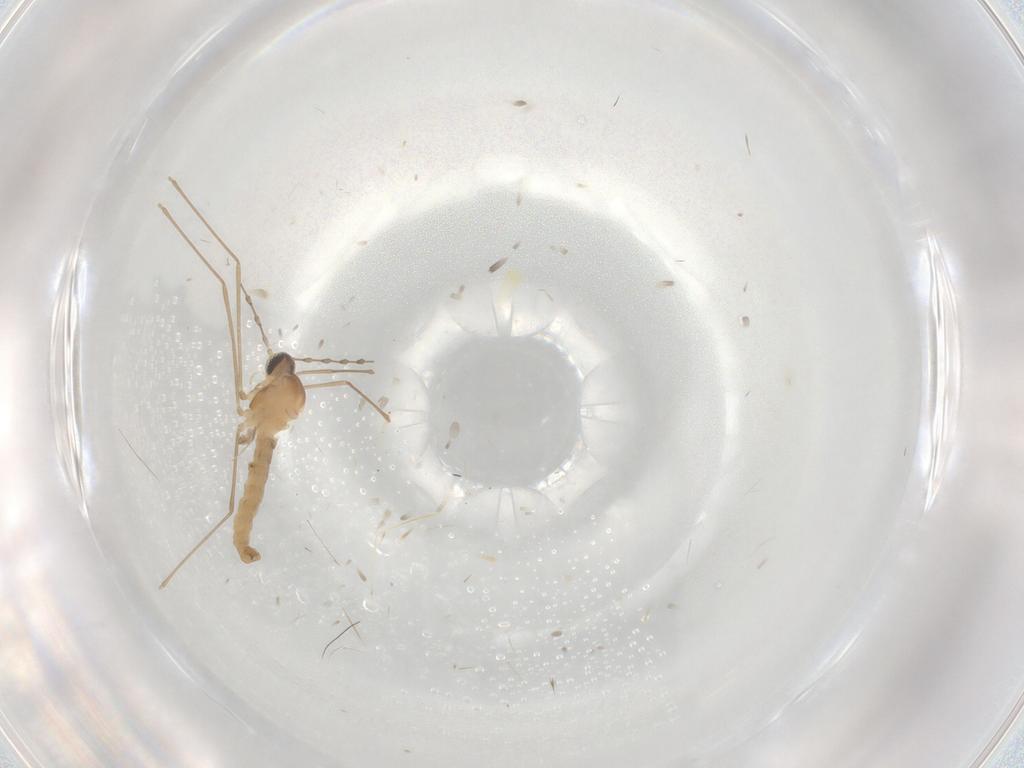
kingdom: Animalia
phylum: Arthropoda
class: Insecta
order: Diptera
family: Cecidomyiidae
